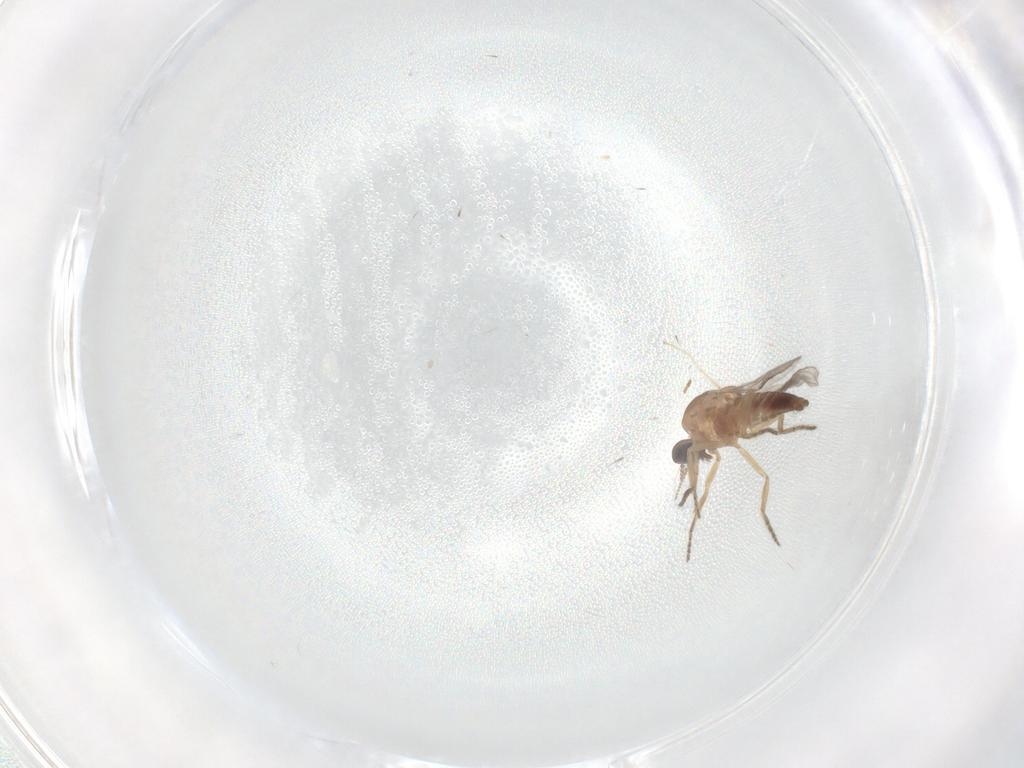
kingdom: Animalia
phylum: Arthropoda
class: Insecta
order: Diptera
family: Ceratopogonidae
